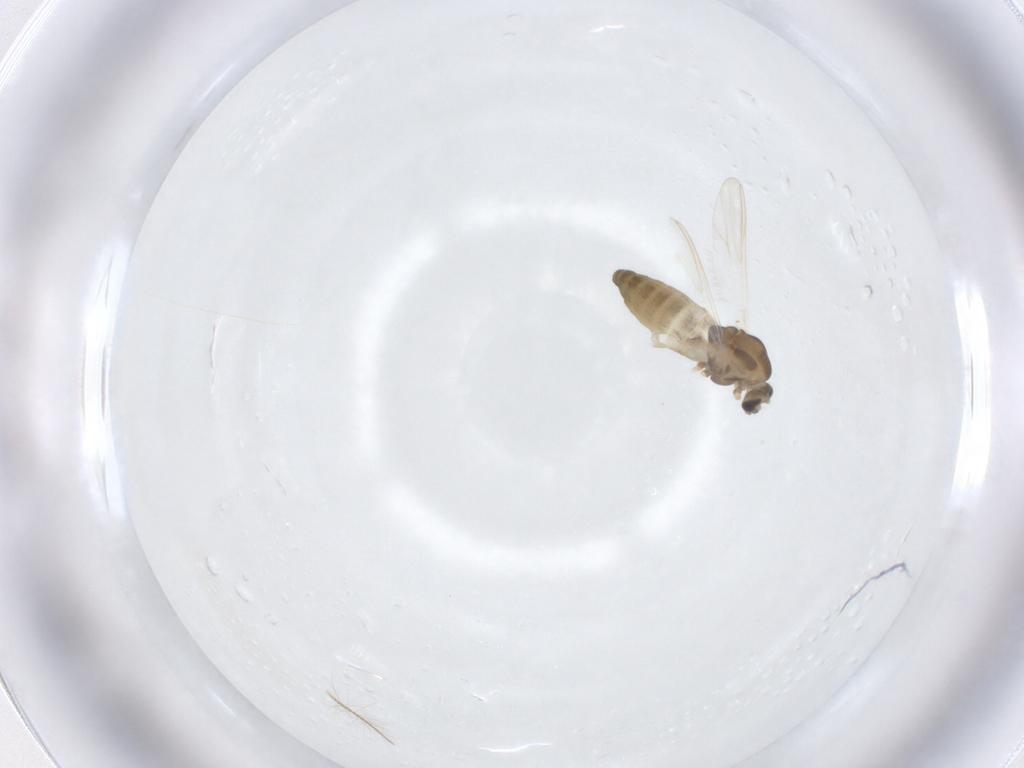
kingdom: Animalia
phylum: Arthropoda
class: Insecta
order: Diptera
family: Chironomidae
